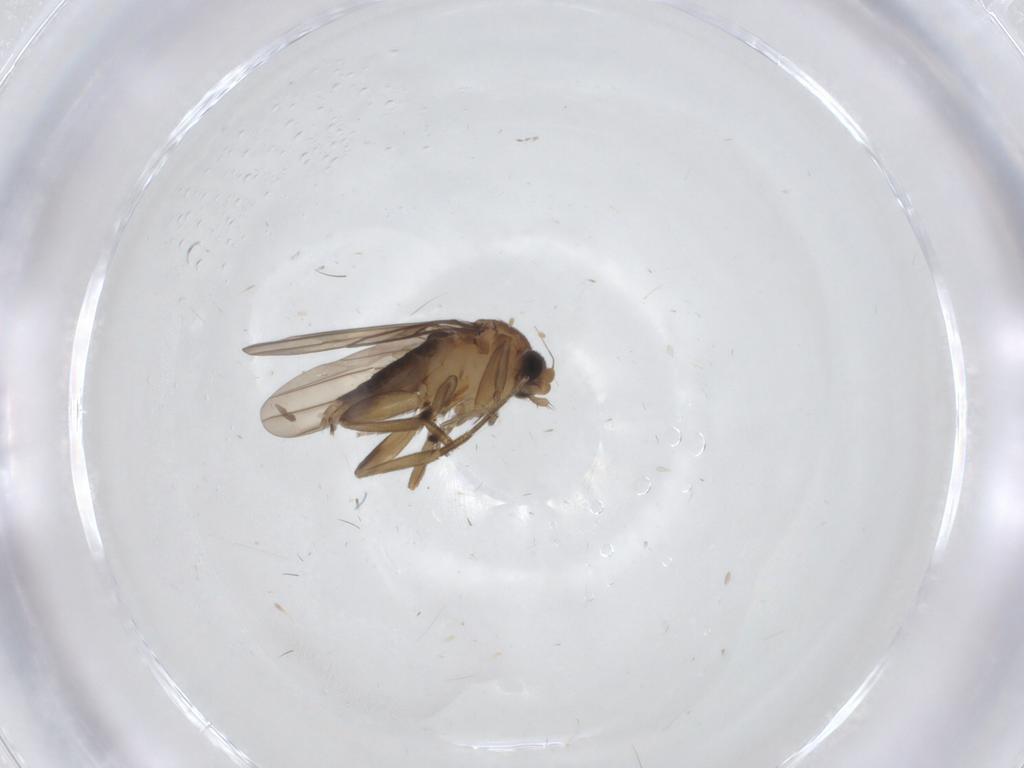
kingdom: Animalia
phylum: Arthropoda
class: Insecta
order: Diptera
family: Phoridae
